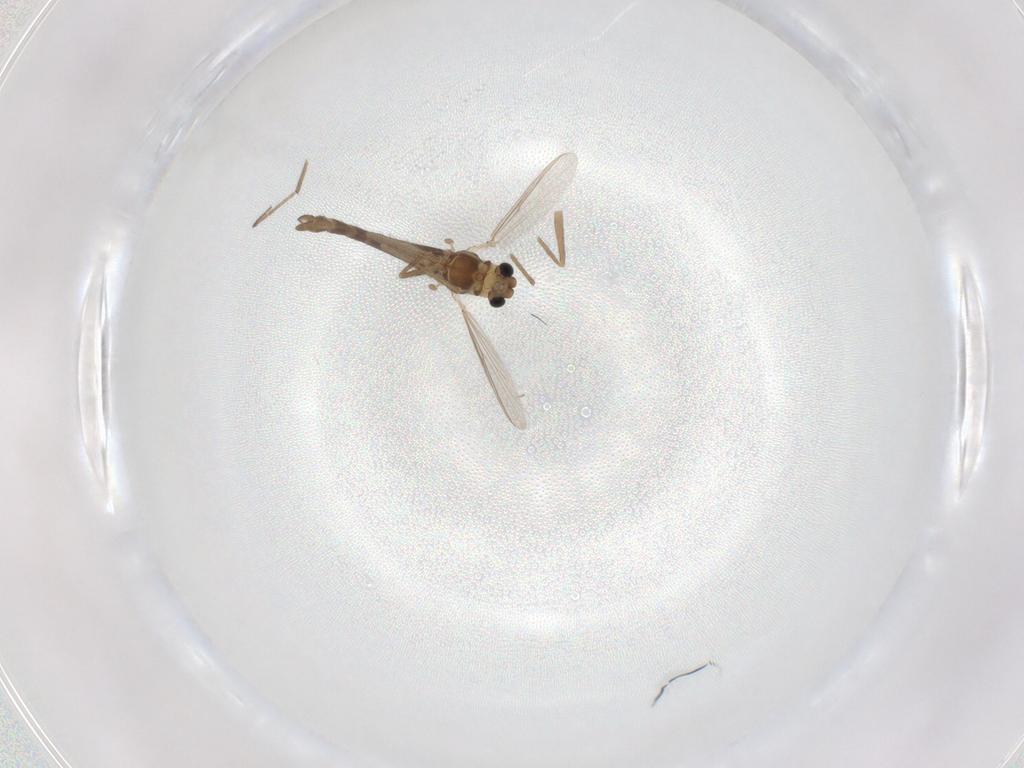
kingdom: Animalia
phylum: Arthropoda
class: Insecta
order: Diptera
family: Chironomidae
